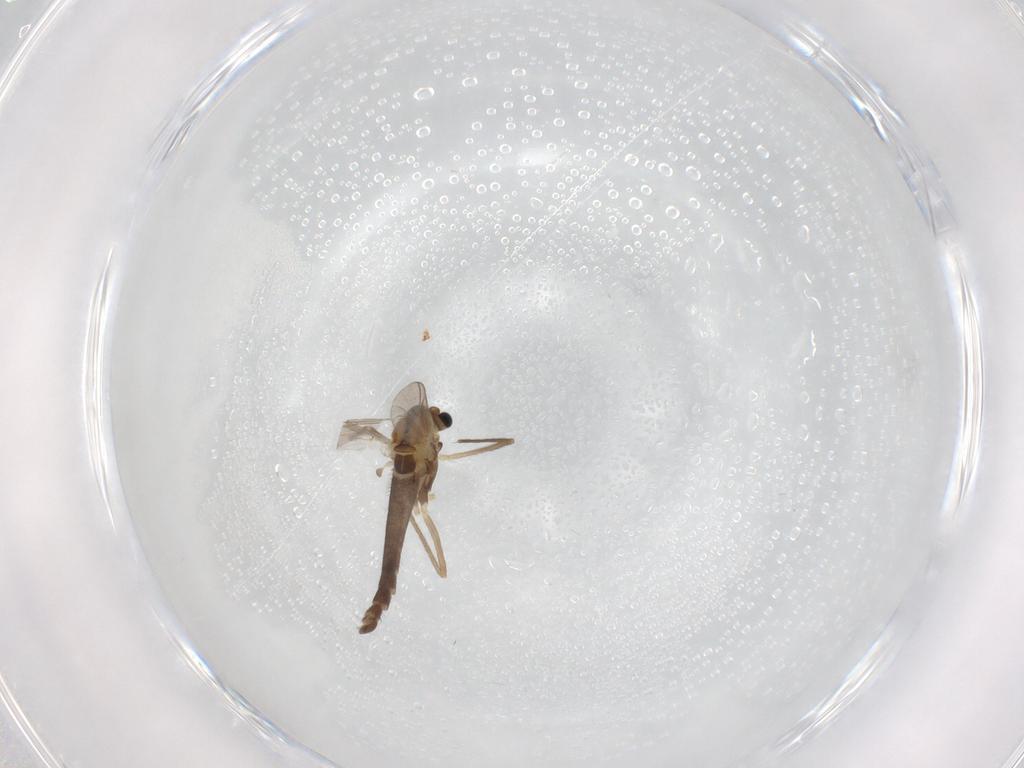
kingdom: Animalia
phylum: Arthropoda
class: Insecta
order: Diptera
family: Chironomidae
